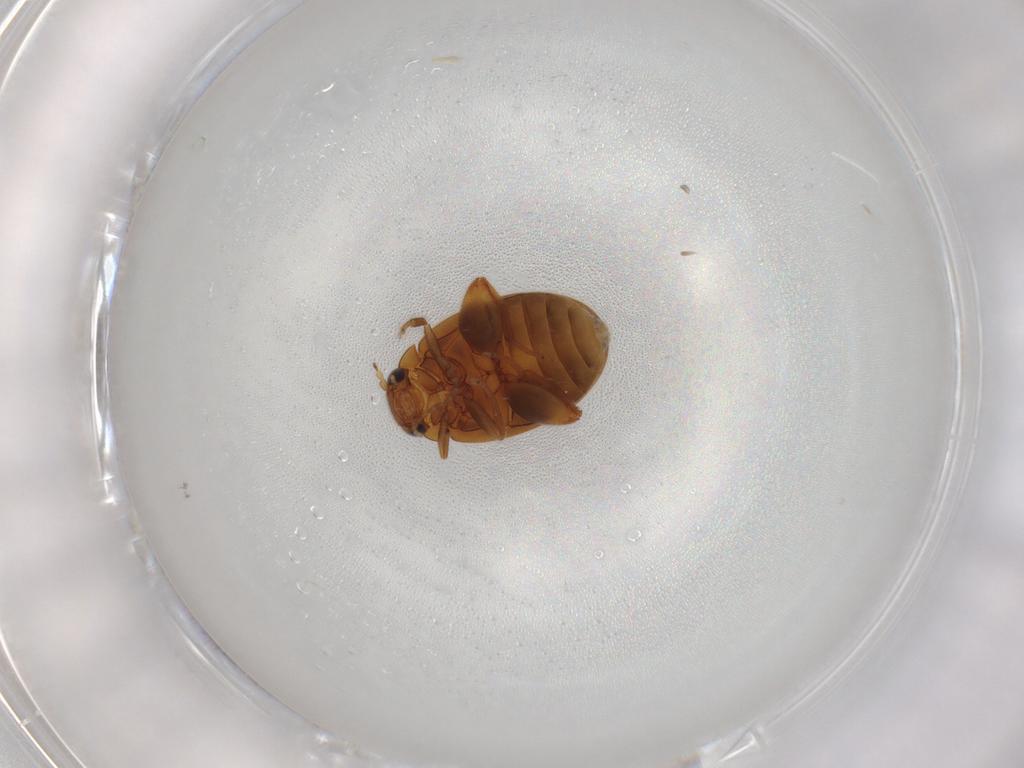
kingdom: Animalia
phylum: Arthropoda
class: Insecta
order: Coleoptera
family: Scirtidae
